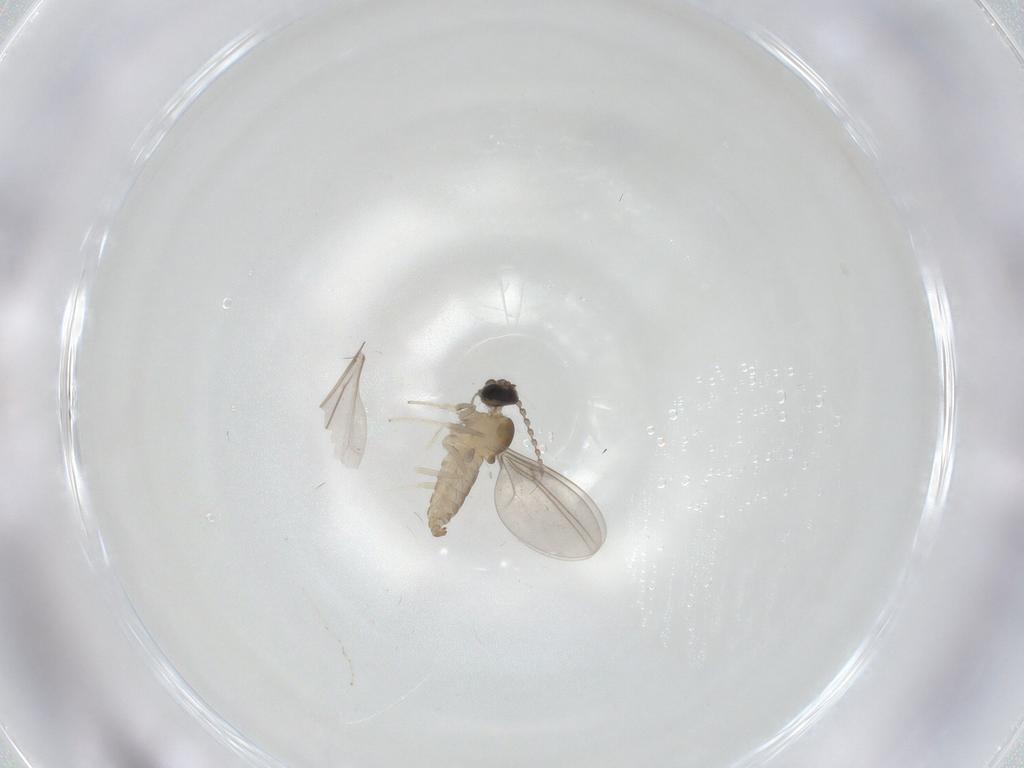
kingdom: Animalia
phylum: Arthropoda
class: Insecta
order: Diptera
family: Cecidomyiidae
